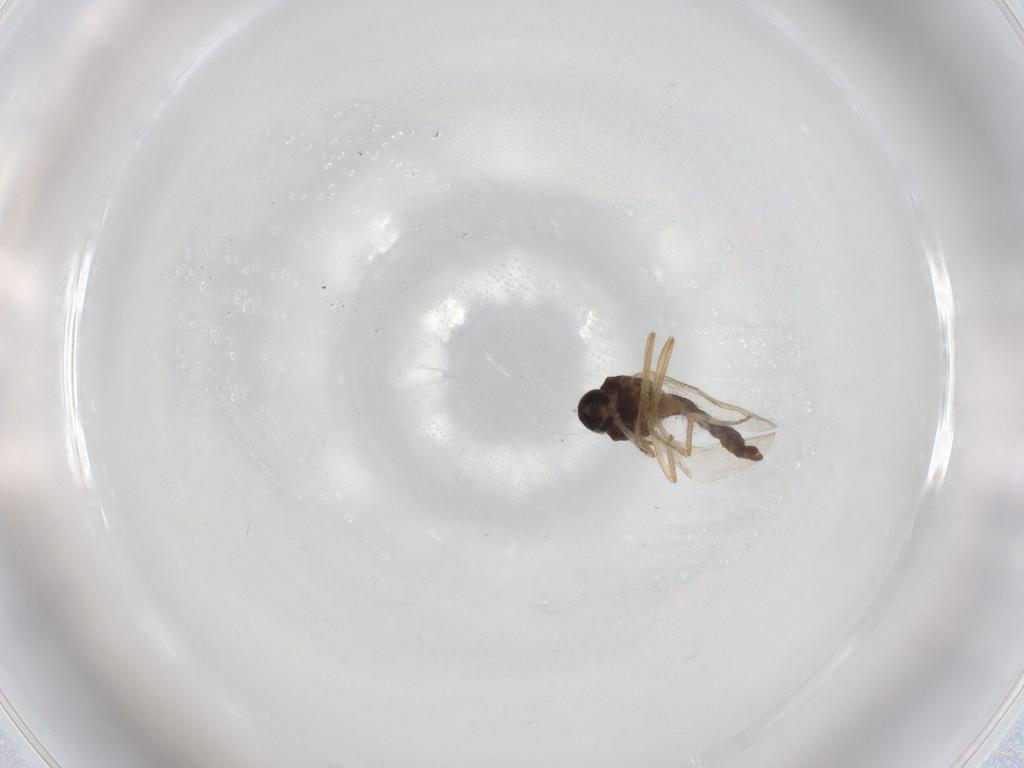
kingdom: Animalia
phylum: Arthropoda
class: Insecta
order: Diptera
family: Ceratopogonidae
